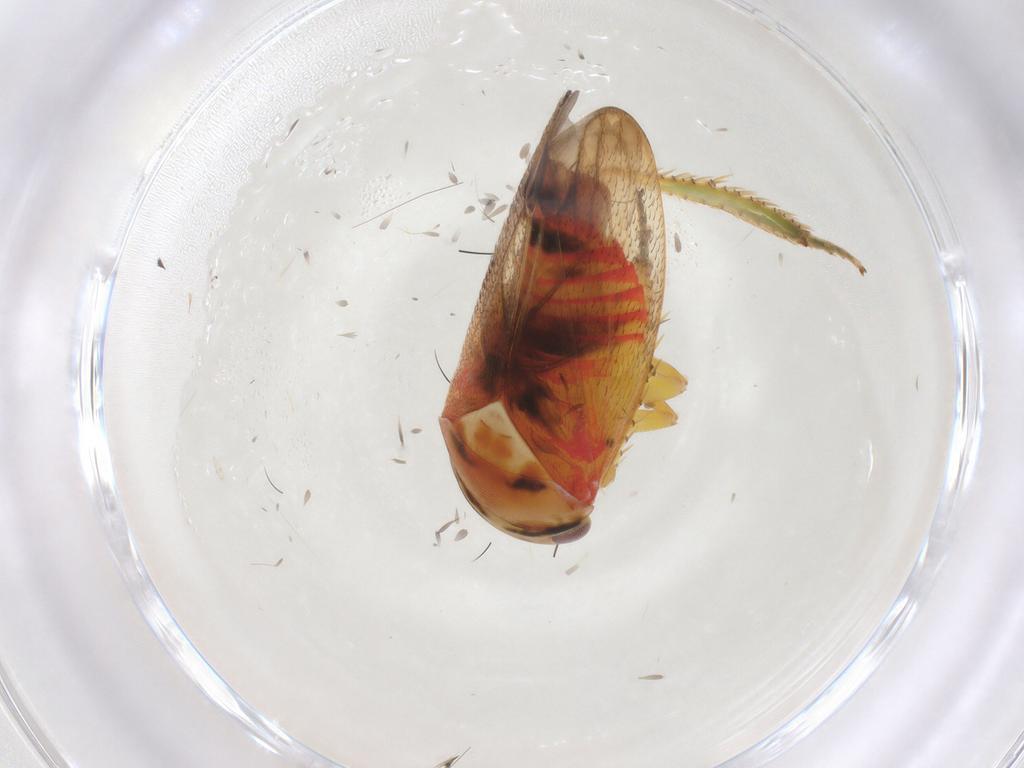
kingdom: Animalia
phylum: Arthropoda
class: Insecta
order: Hemiptera
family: Cicadellidae
